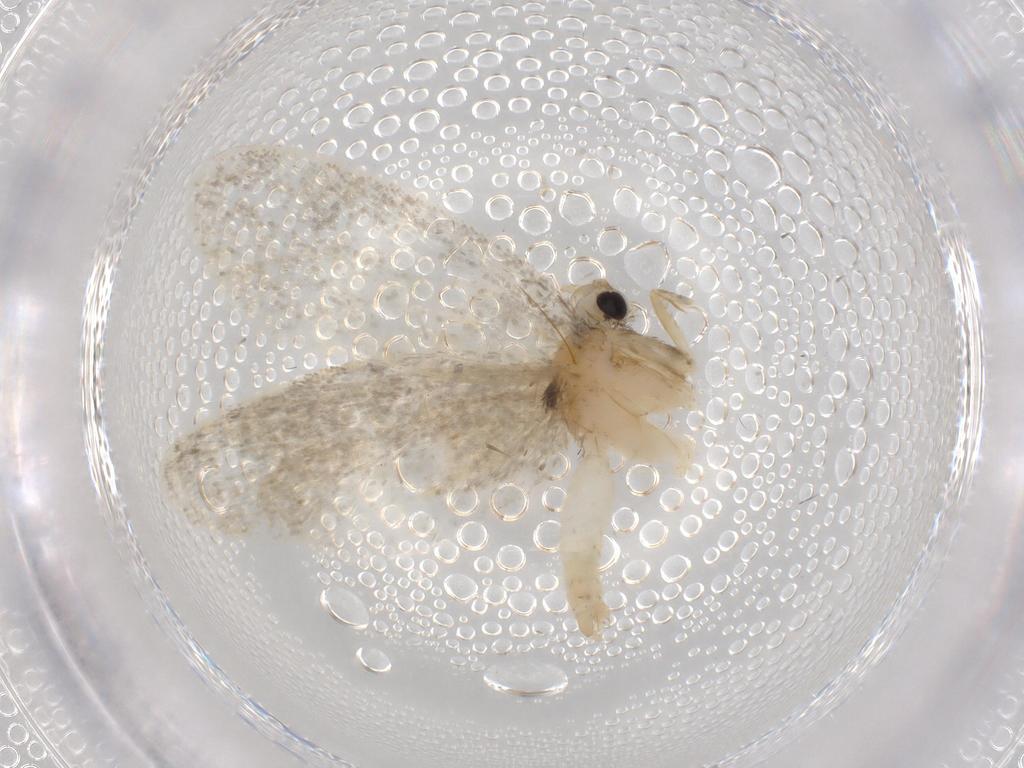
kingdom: Animalia
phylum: Arthropoda
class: Insecta
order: Lepidoptera
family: Psychidae
